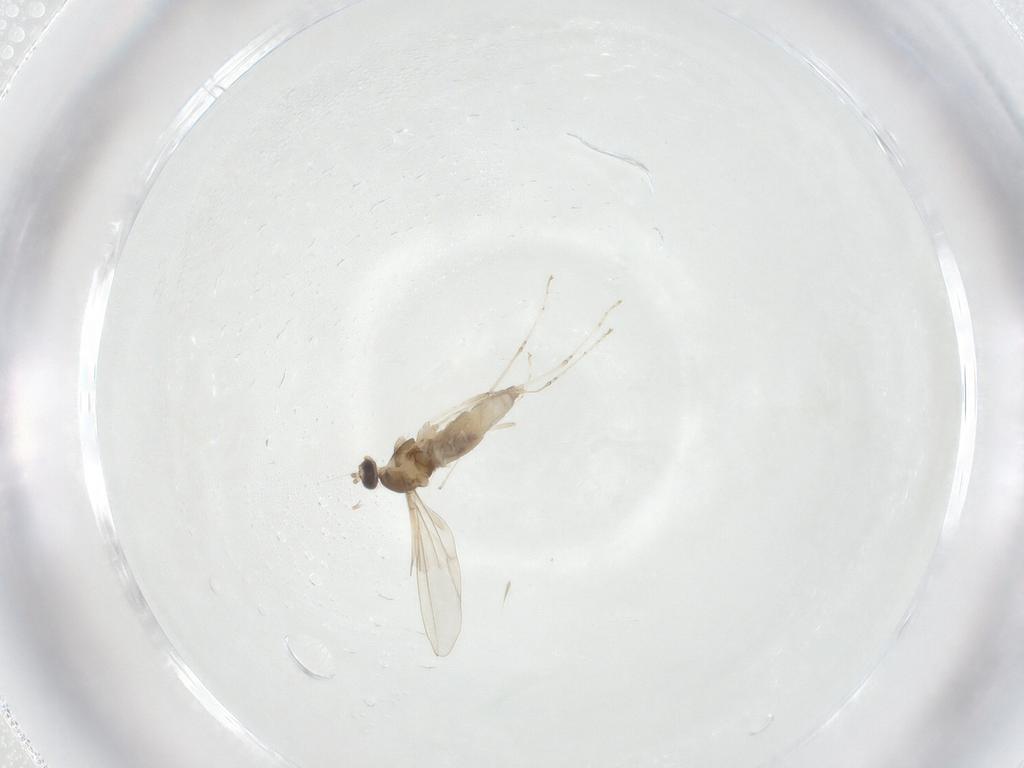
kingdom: Animalia
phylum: Arthropoda
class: Insecta
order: Diptera
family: Cecidomyiidae
